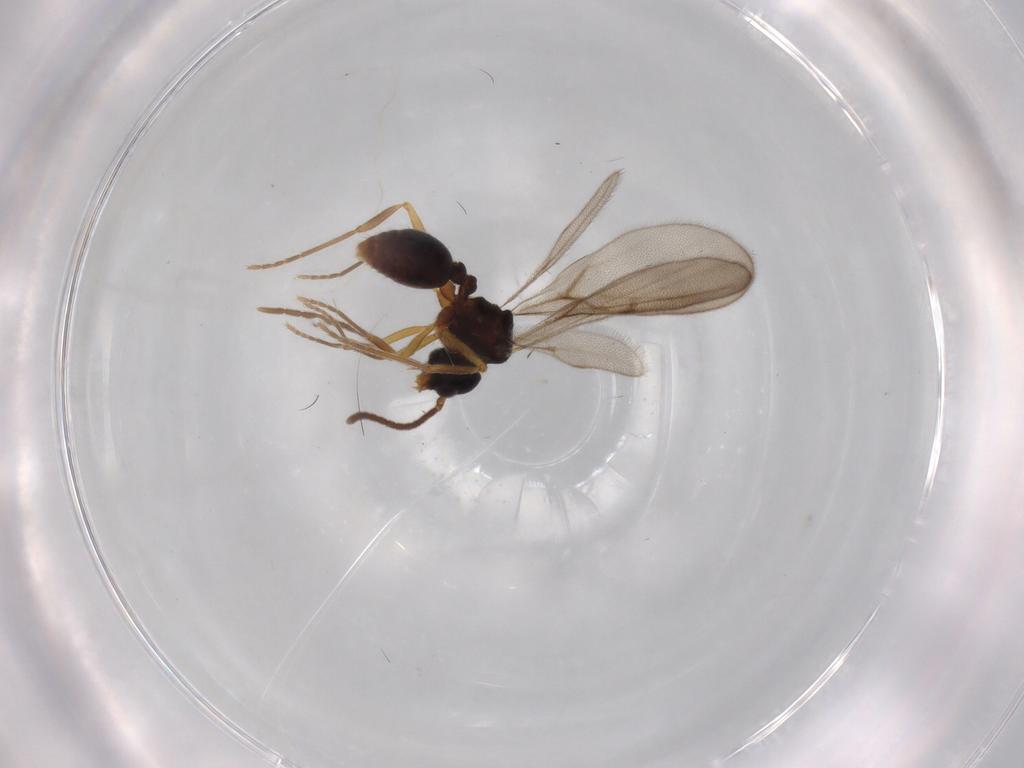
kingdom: Animalia
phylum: Arthropoda
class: Insecta
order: Hymenoptera
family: Formicidae
